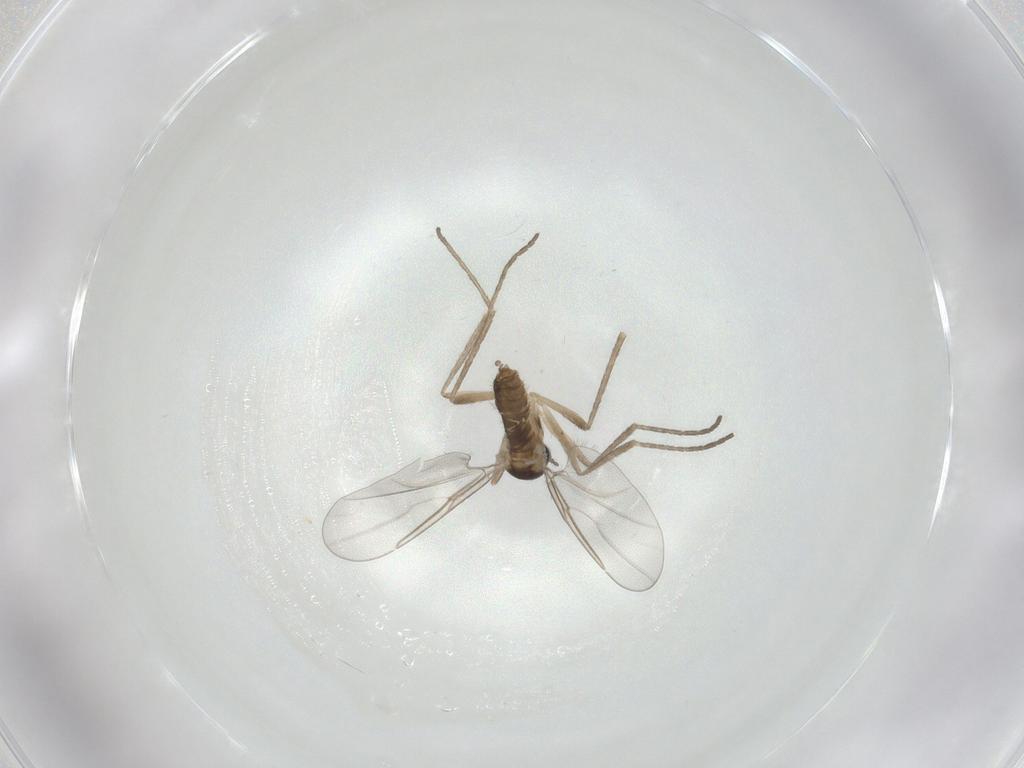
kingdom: Animalia
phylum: Arthropoda
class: Insecta
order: Diptera
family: Cecidomyiidae
